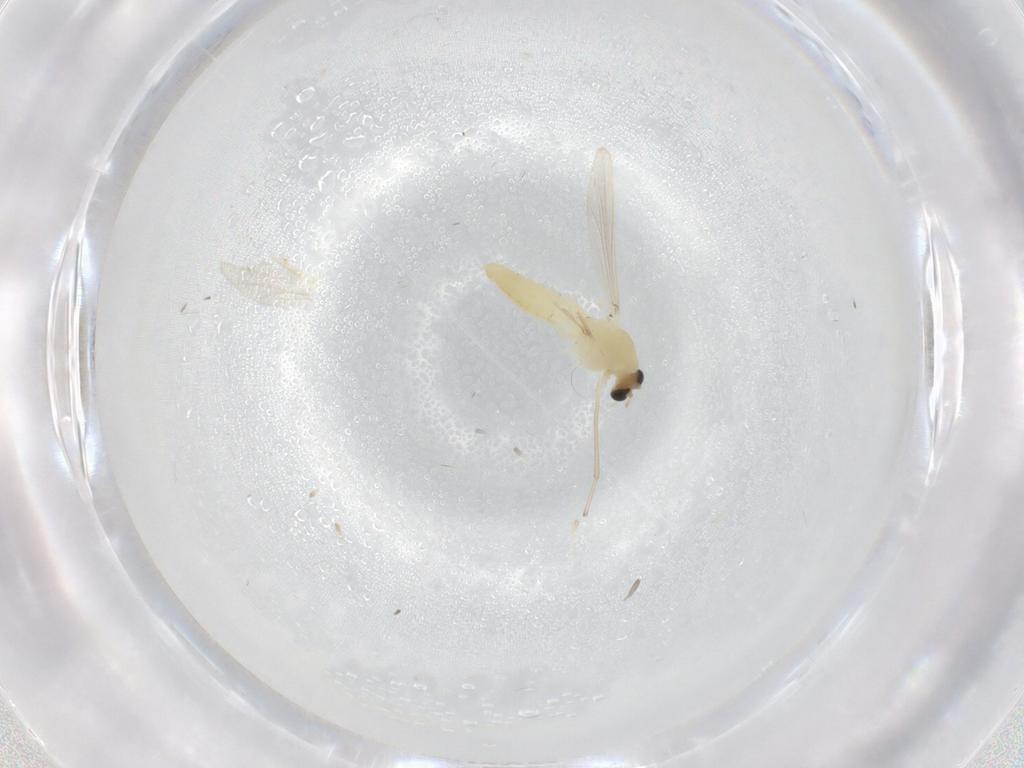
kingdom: Animalia
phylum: Arthropoda
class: Insecta
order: Diptera
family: Chironomidae
